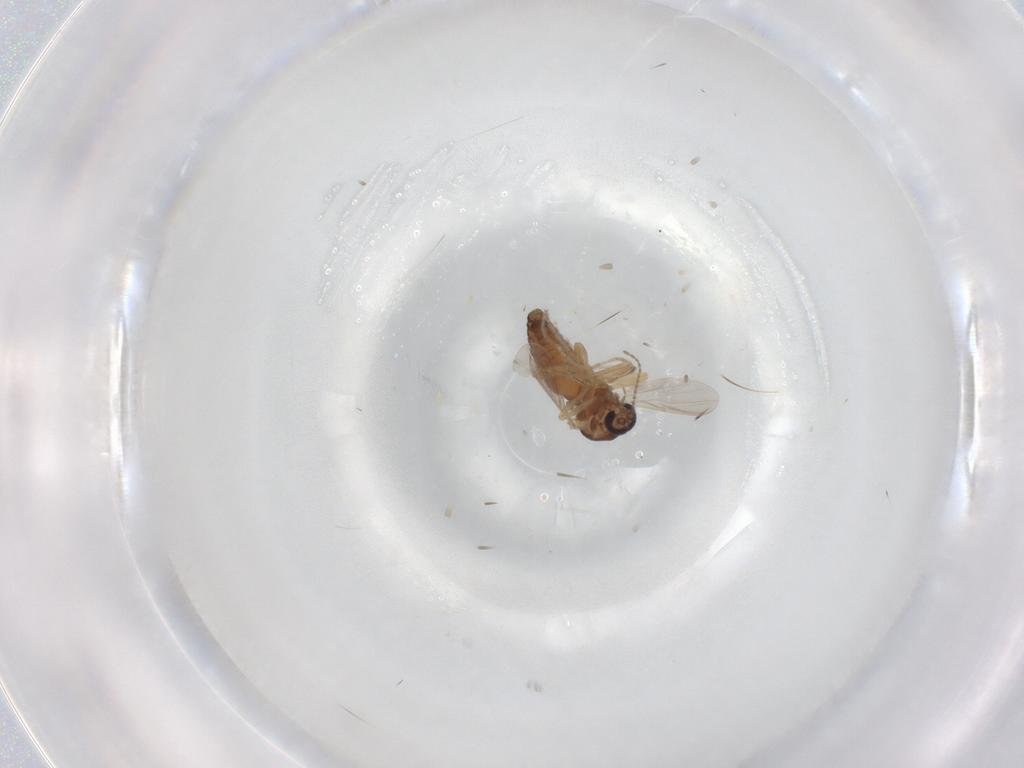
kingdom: Animalia
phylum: Arthropoda
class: Insecta
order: Diptera
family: Ceratopogonidae
